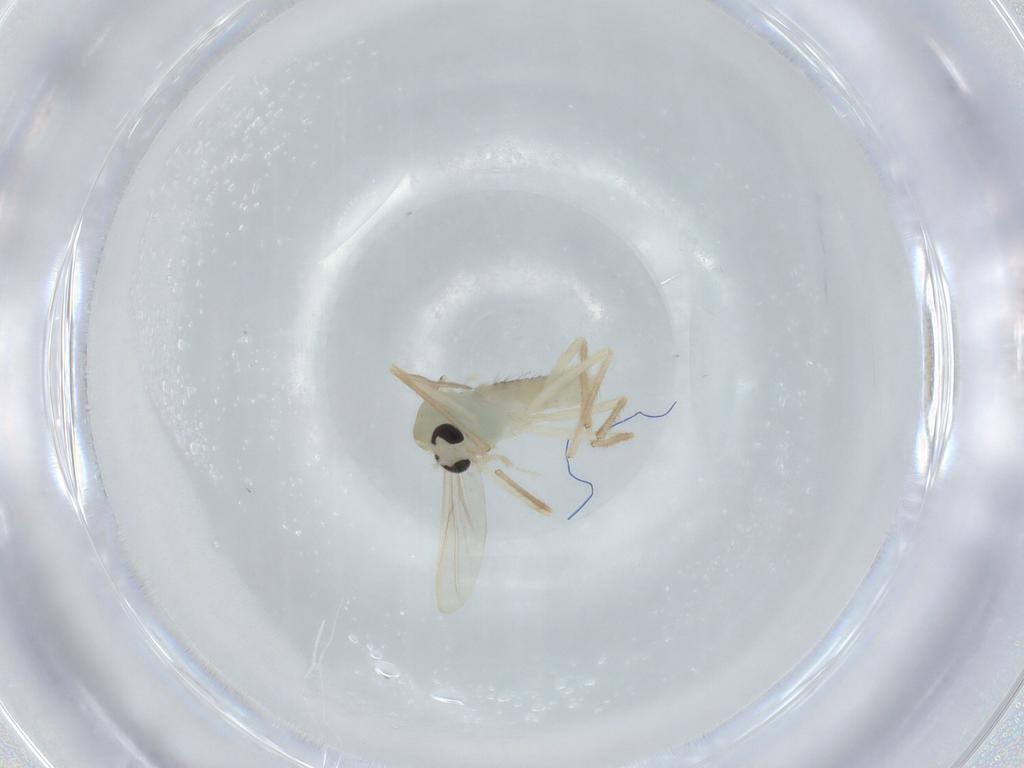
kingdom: Animalia
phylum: Arthropoda
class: Insecta
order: Diptera
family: Chironomidae
